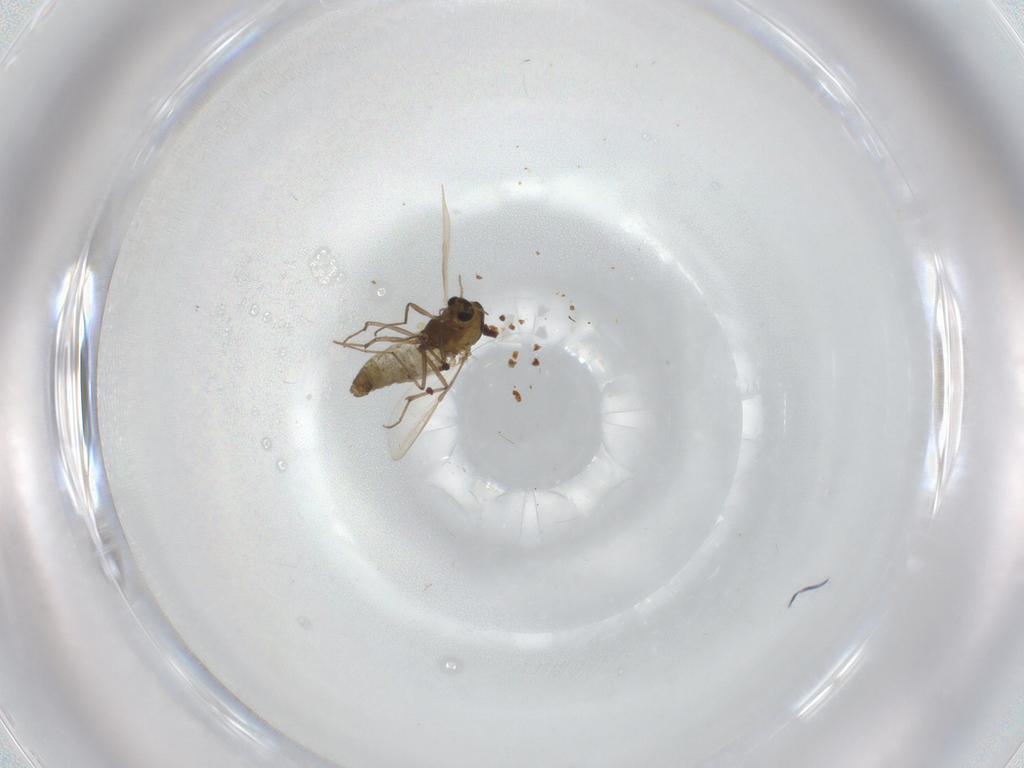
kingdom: Animalia
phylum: Arthropoda
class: Insecta
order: Diptera
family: Chironomidae
